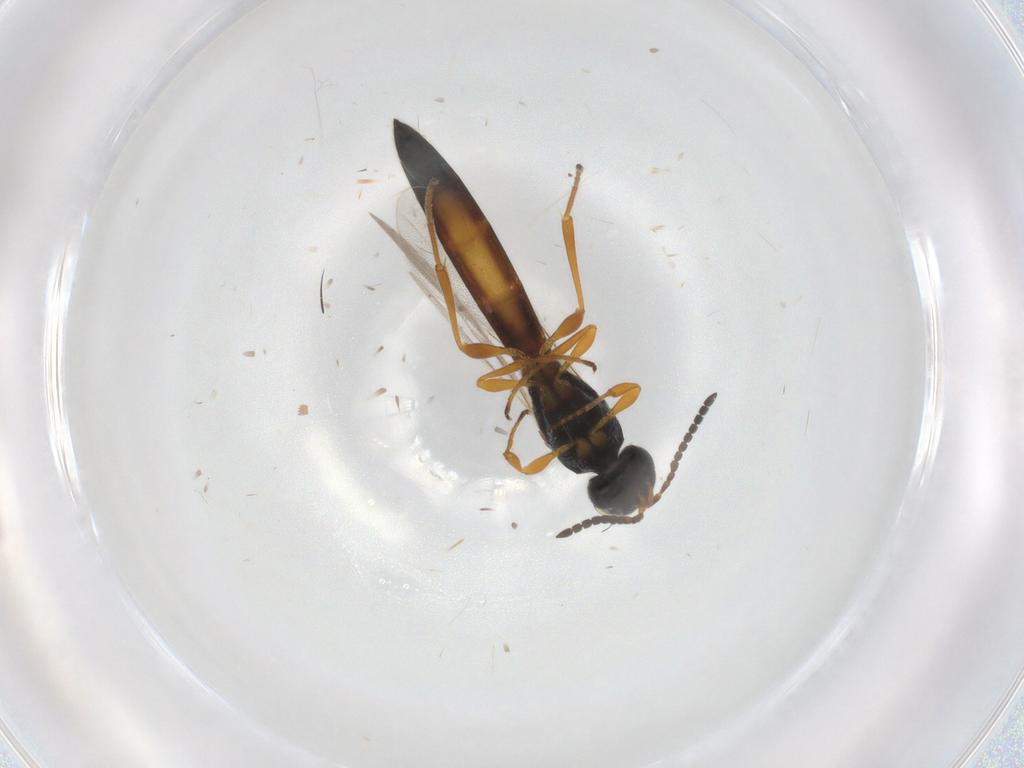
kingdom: Animalia
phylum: Arthropoda
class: Insecta
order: Hymenoptera
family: Scelionidae
